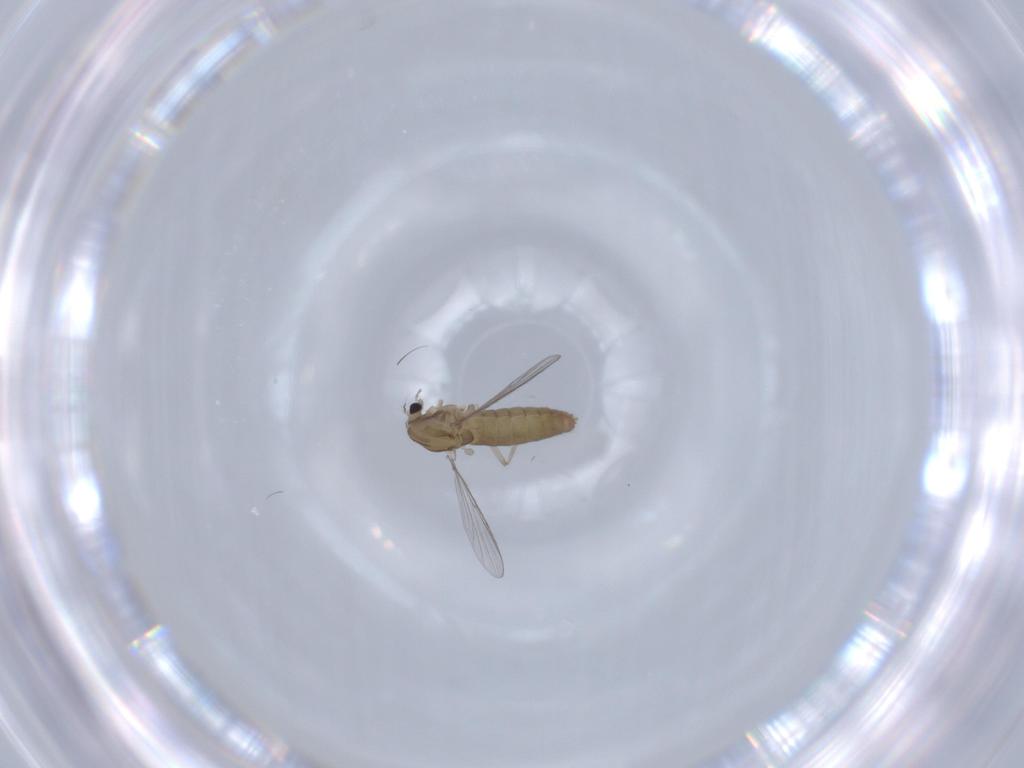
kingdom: Animalia
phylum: Arthropoda
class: Insecta
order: Diptera
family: Chironomidae
